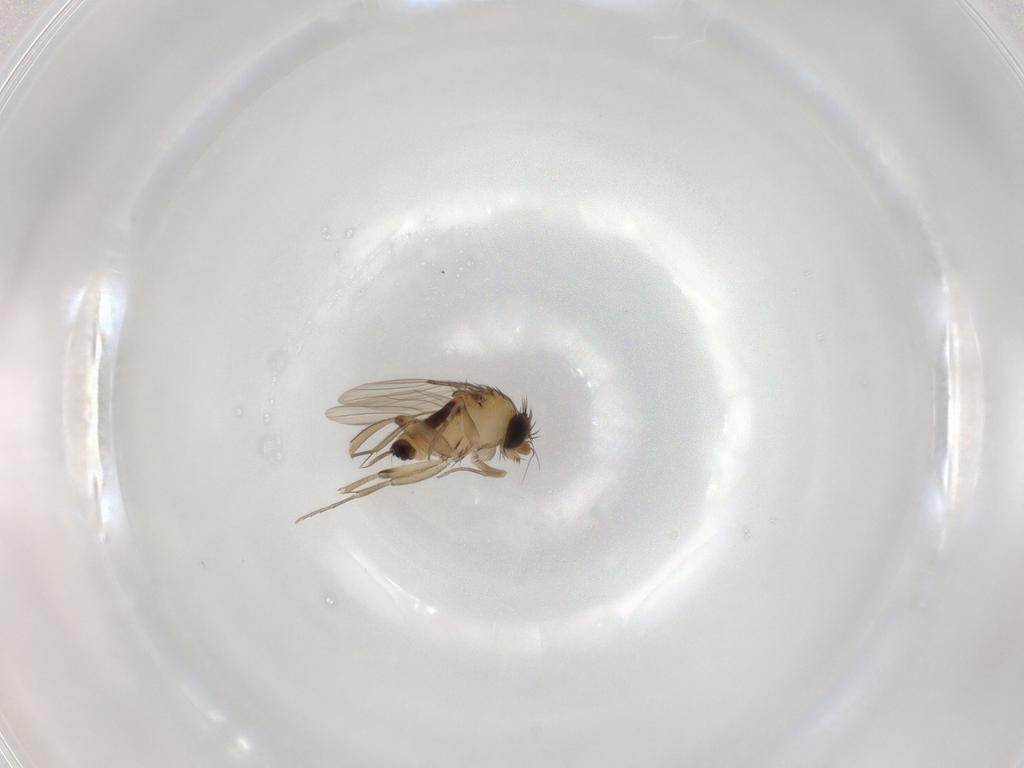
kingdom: Animalia
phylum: Arthropoda
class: Insecta
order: Diptera
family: Phoridae
